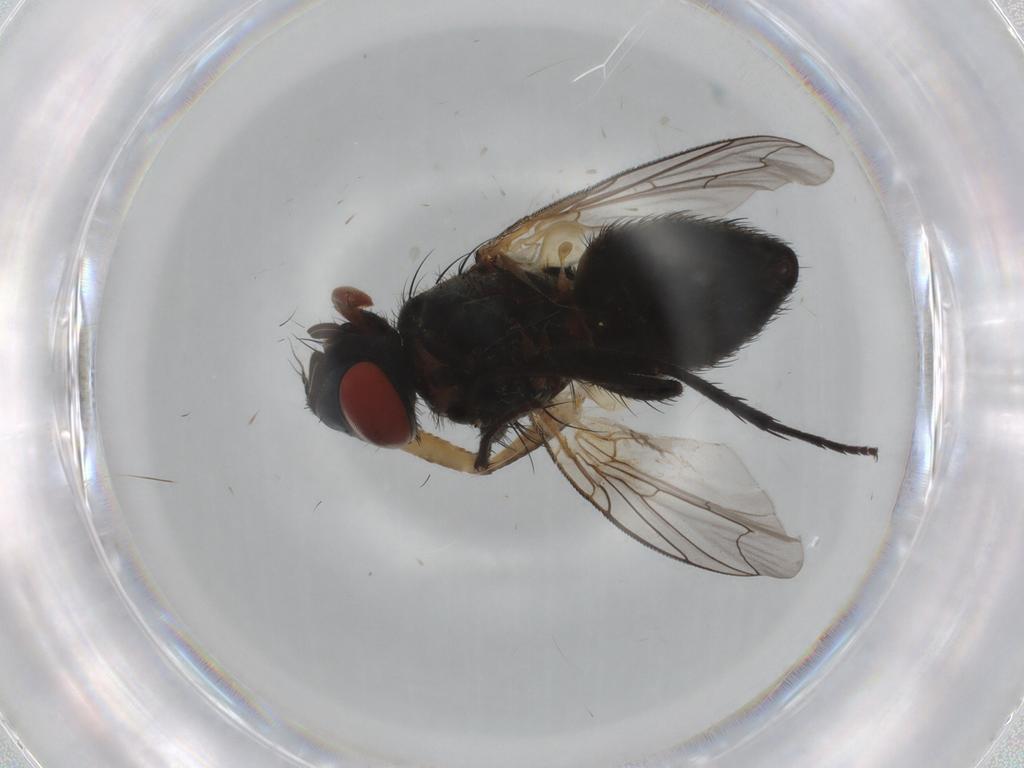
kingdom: Animalia
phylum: Arthropoda
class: Insecta
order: Diptera
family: Sarcophagidae
